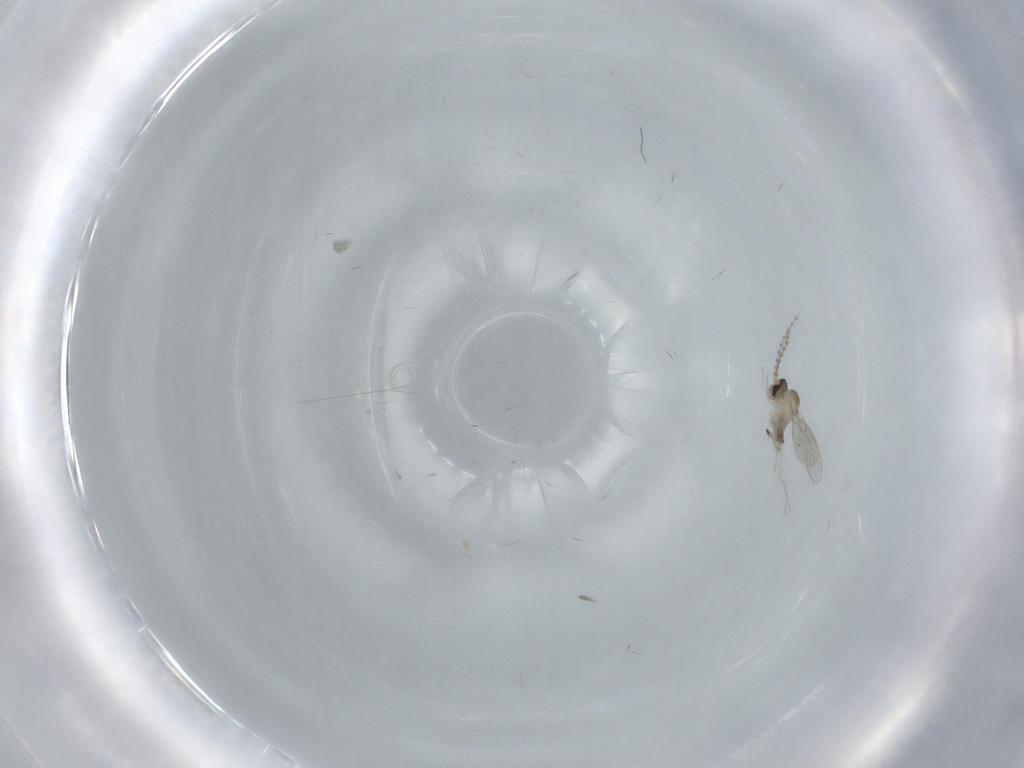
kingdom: Animalia
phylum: Arthropoda
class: Insecta
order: Diptera
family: Cecidomyiidae
